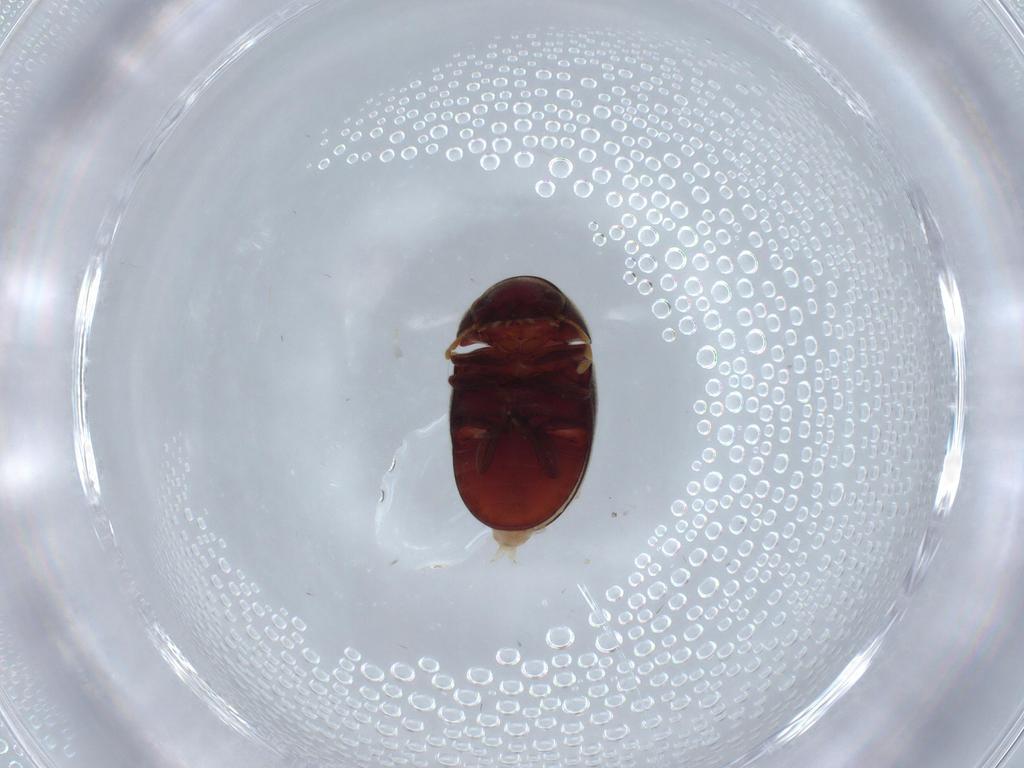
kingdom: Animalia
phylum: Arthropoda
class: Insecta
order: Coleoptera
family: Ptinidae
